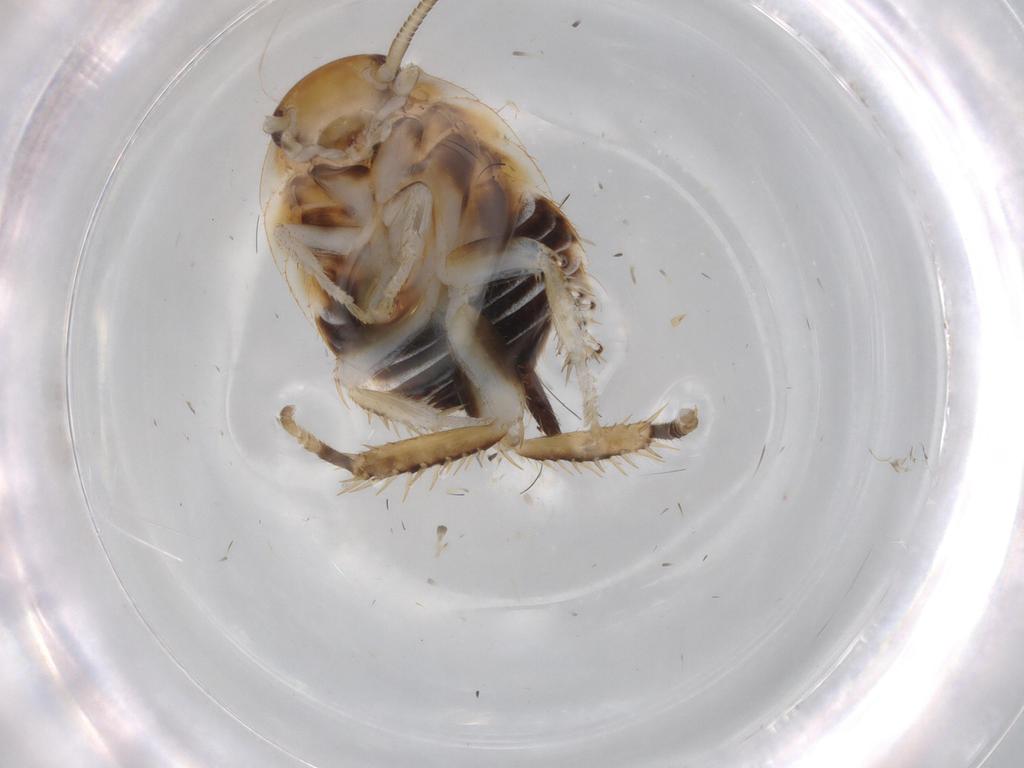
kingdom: Animalia
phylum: Arthropoda
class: Insecta
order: Blattodea
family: Ectobiidae
